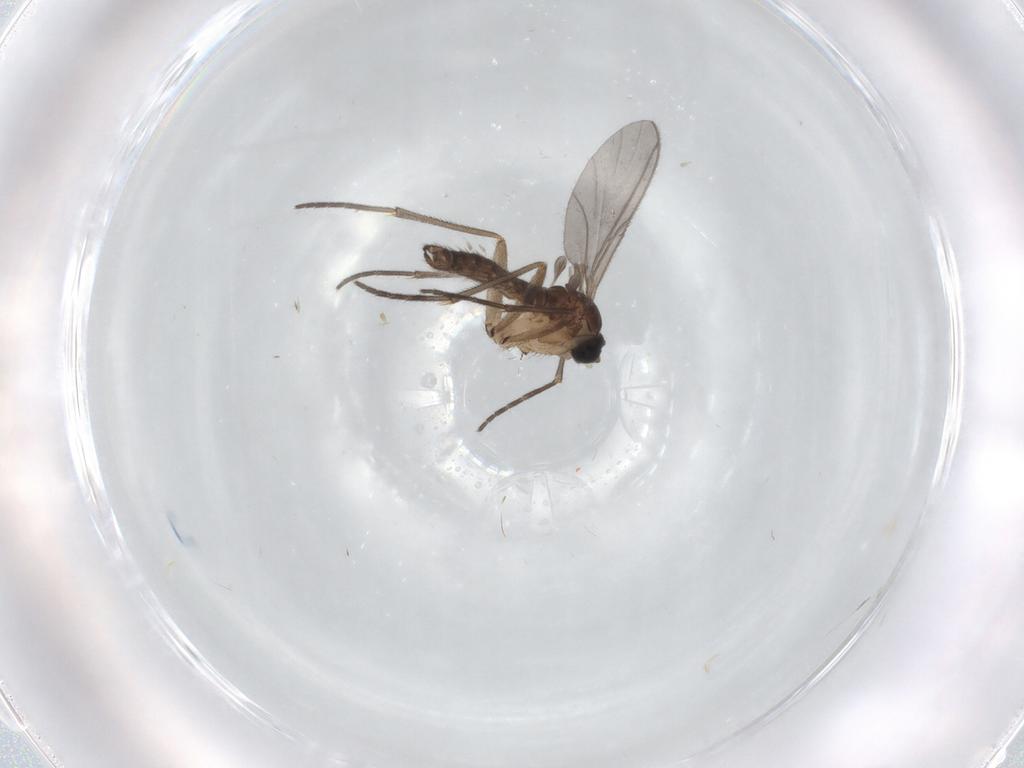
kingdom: Animalia
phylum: Arthropoda
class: Insecta
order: Diptera
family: Sciaridae
